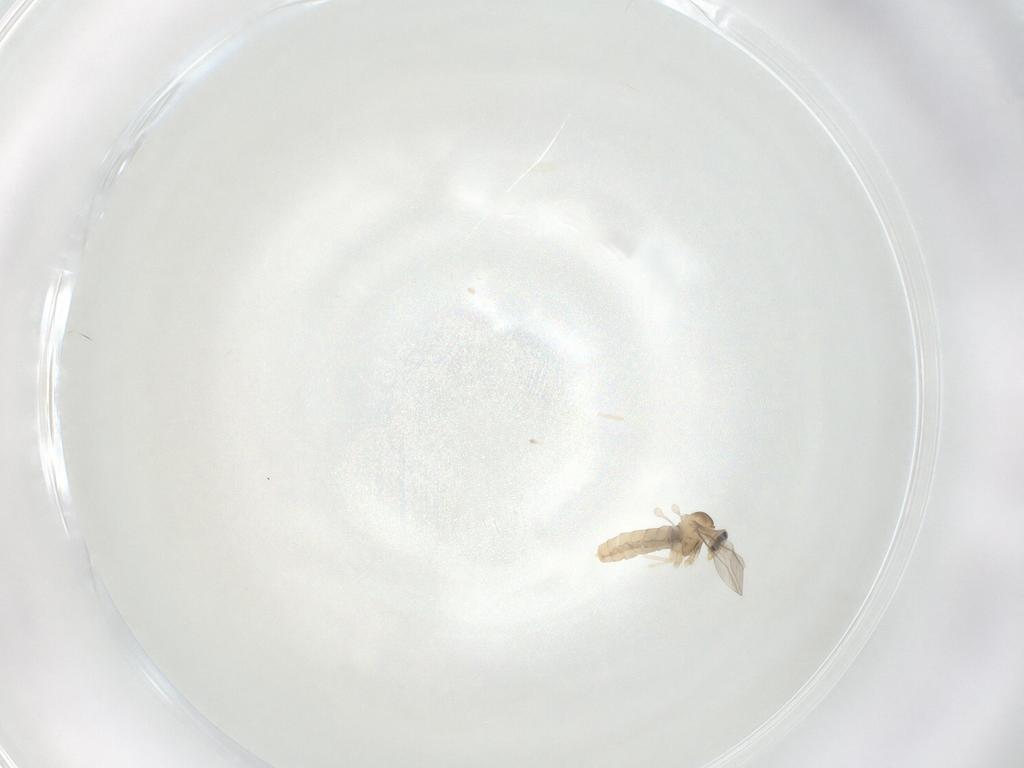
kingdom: Animalia
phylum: Arthropoda
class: Insecta
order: Diptera
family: Cecidomyiidae
